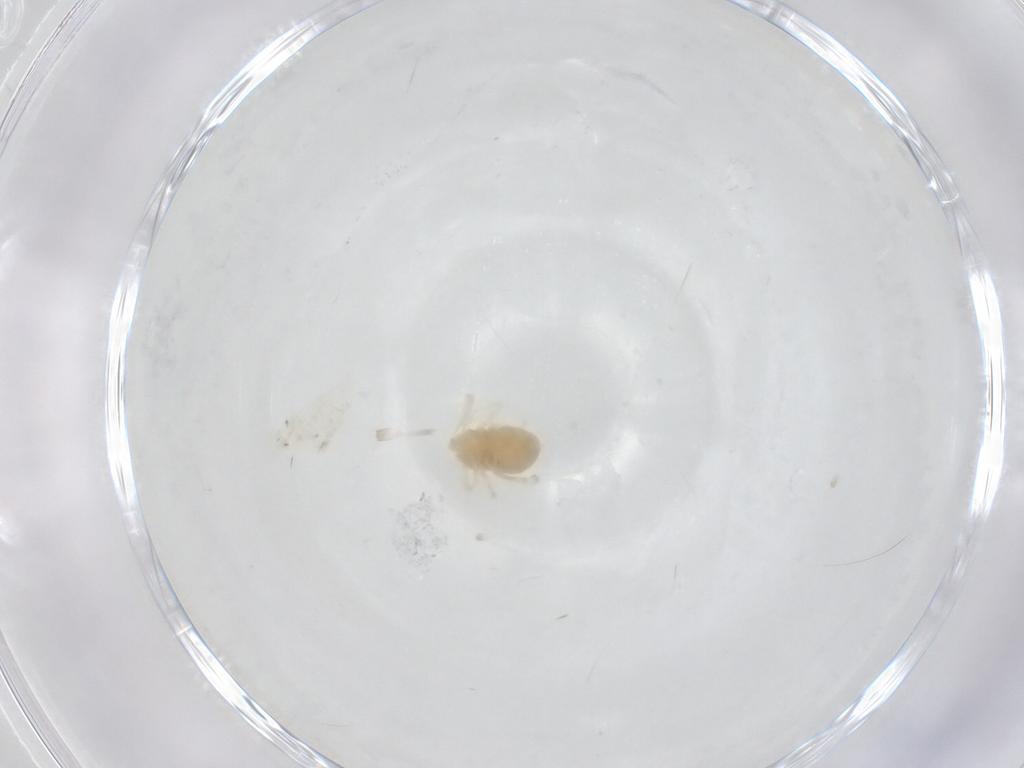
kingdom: Animalia
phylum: Arthropoda
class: Arachnida
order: Trombidiformes
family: Anystidae
